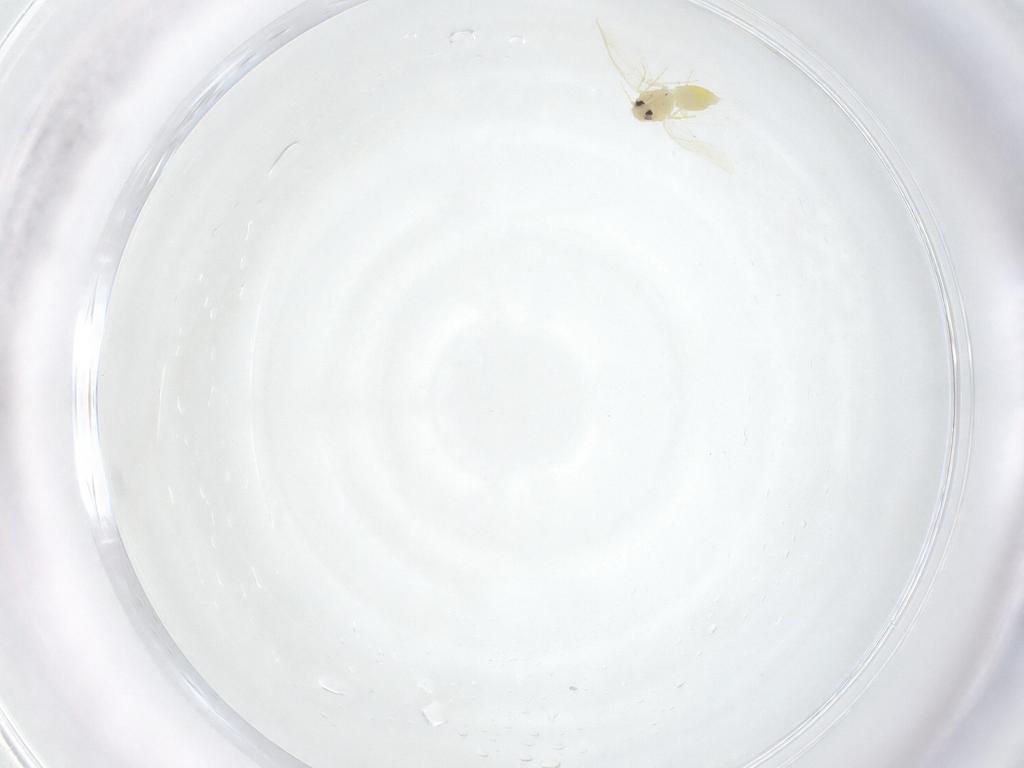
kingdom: Animalia
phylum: Arthropoda
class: Insecta
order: Hemiptera
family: Aleyrodidae
